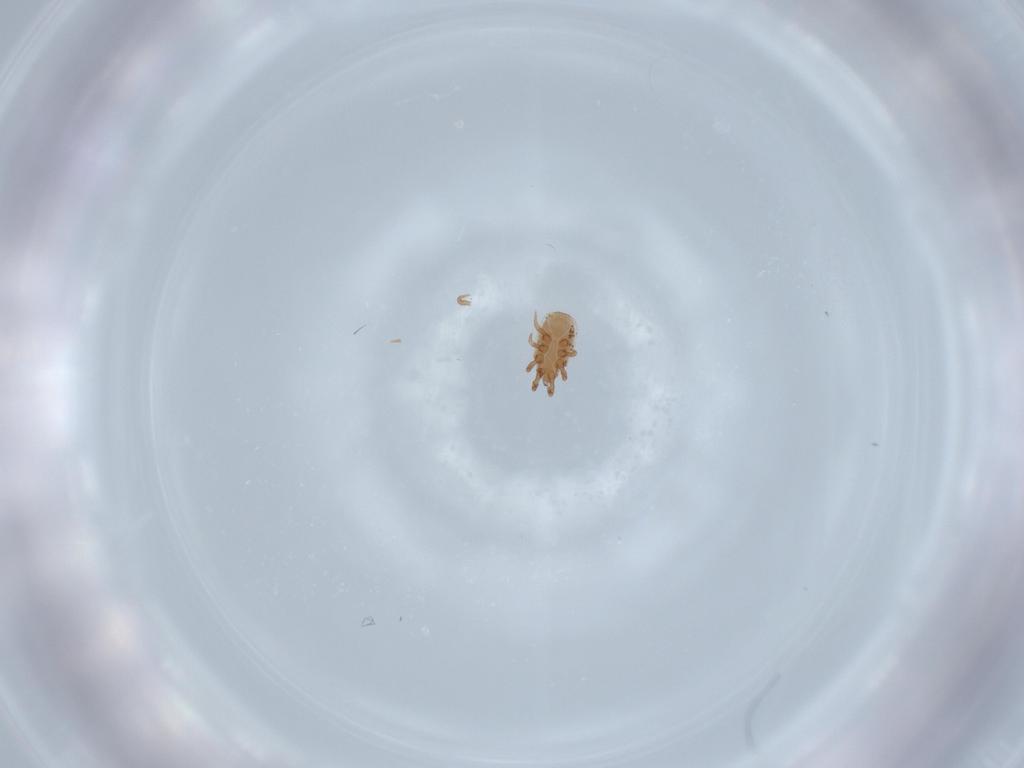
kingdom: Animalia
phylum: Arthropoda
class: Arachnida
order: Mesostigmata
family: Dinychidae
